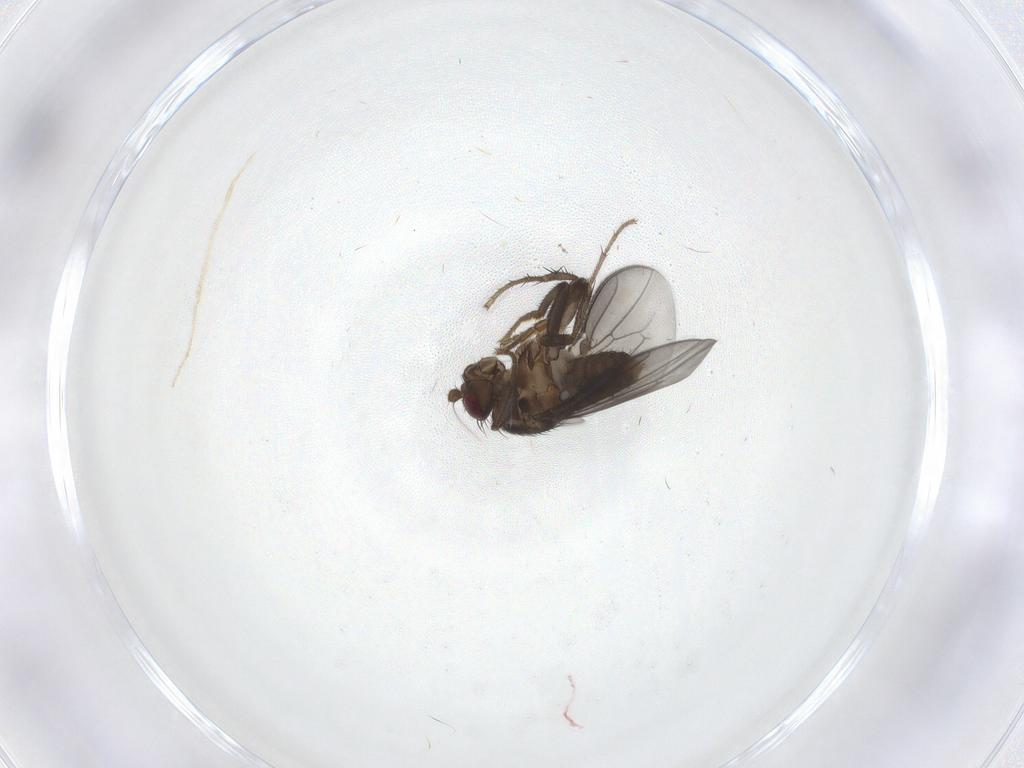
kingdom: Animalia
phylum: Arthropoda
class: Insecta
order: Diptera
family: Sphaeroceridae
